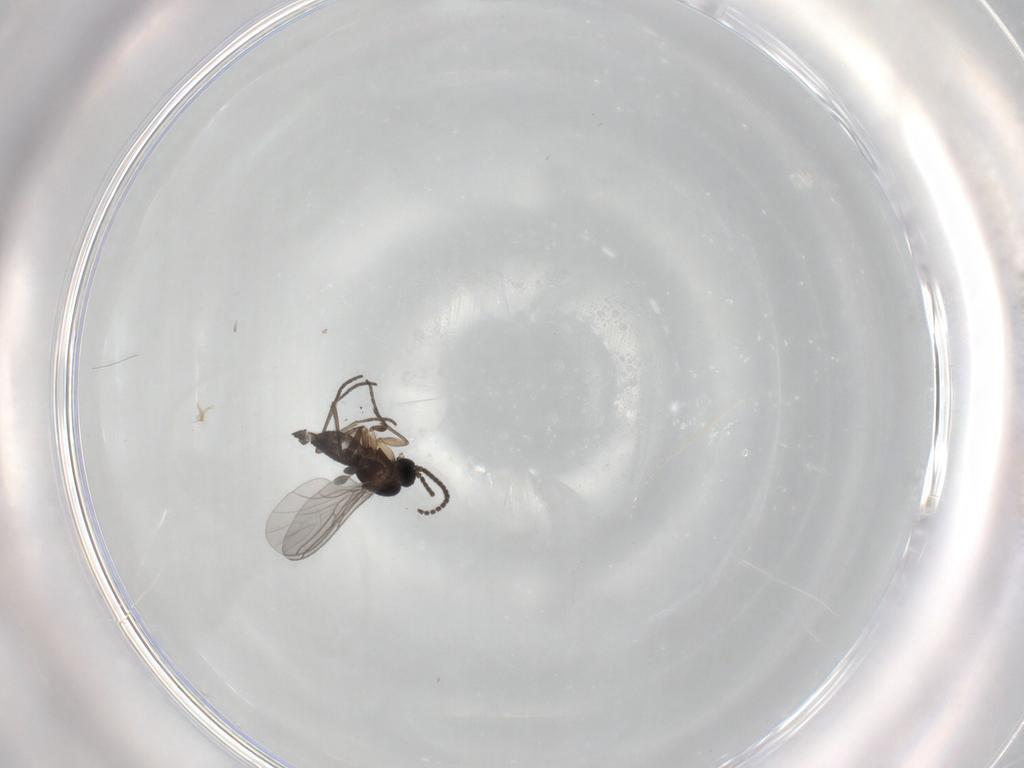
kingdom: Animalia
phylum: Arthropoda
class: Insecta
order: Diptera
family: Sciaridae
